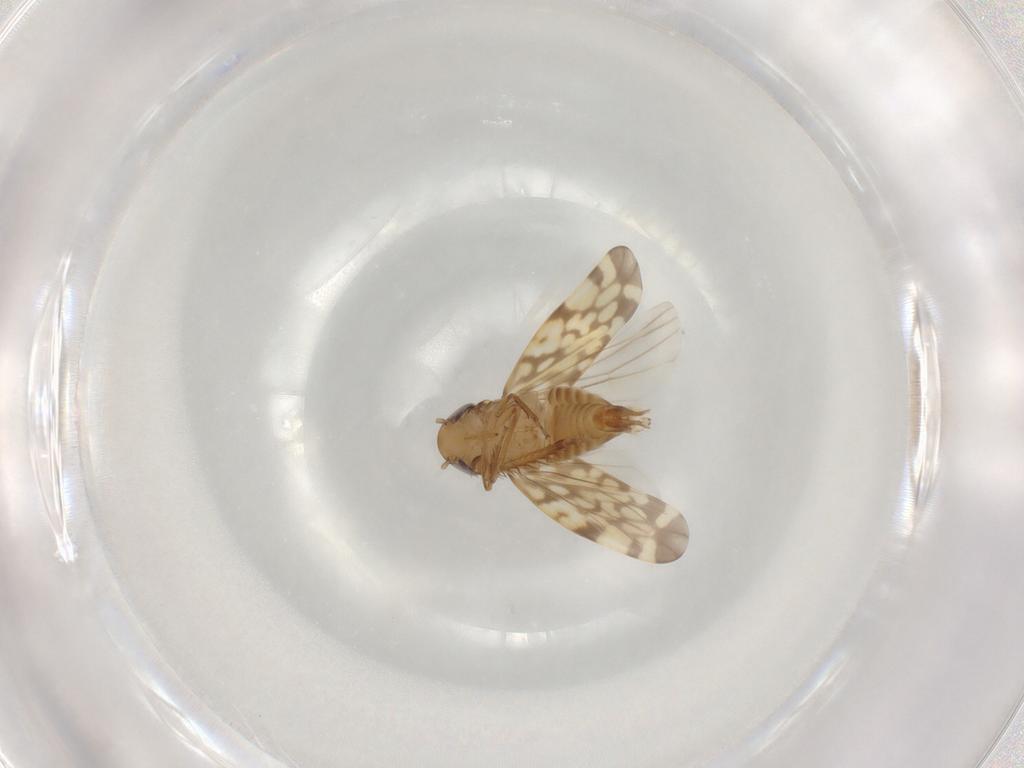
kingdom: Animalia
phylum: Arthropoda
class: Insecta
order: Hemiptera
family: Cicadellidae
